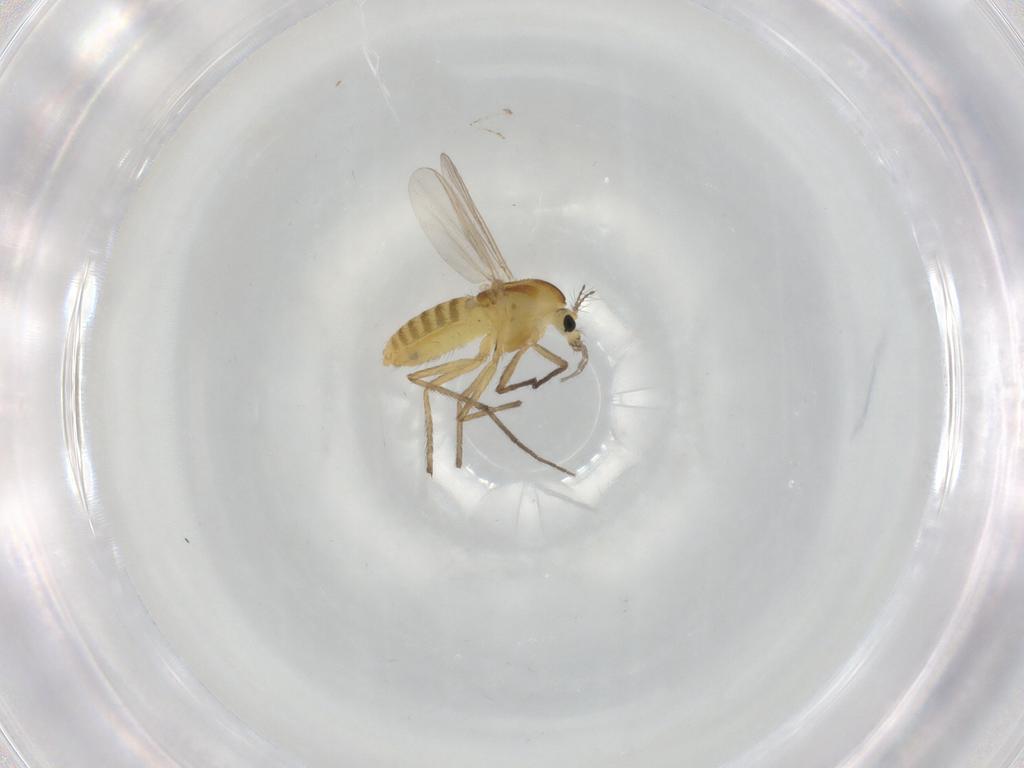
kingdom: Animalia
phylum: Arthropoda
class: Insecta
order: Diptera
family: Chironomidae
